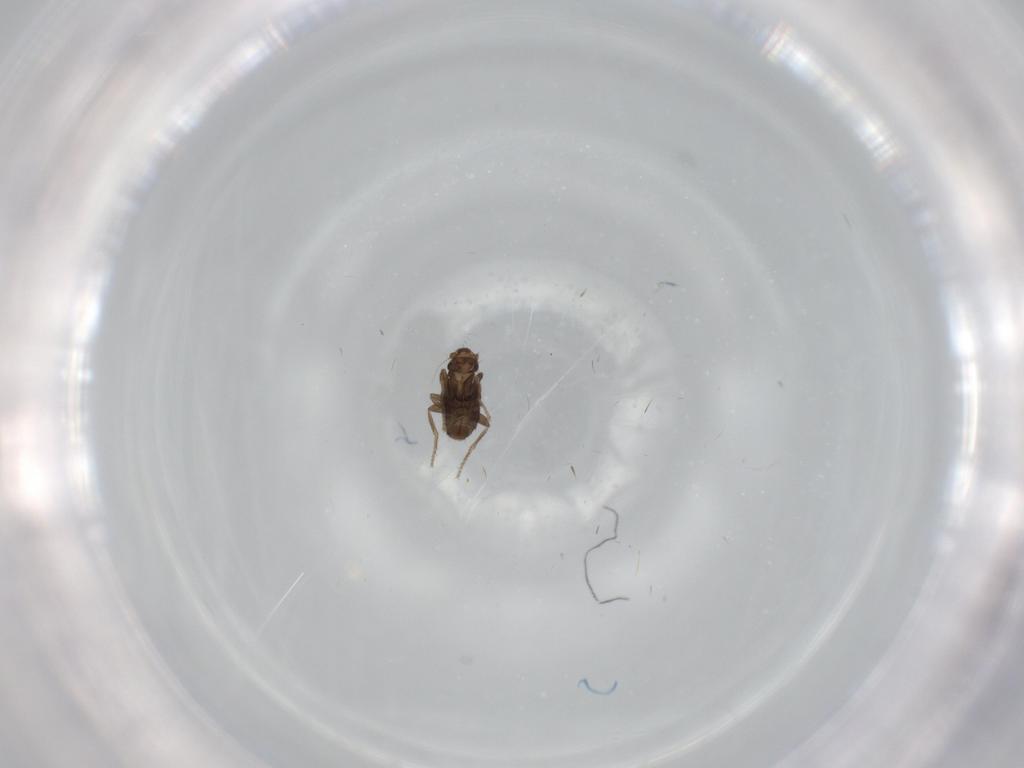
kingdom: Animalia
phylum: Arthropoda
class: Insecta
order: Diptera
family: Phoridae
